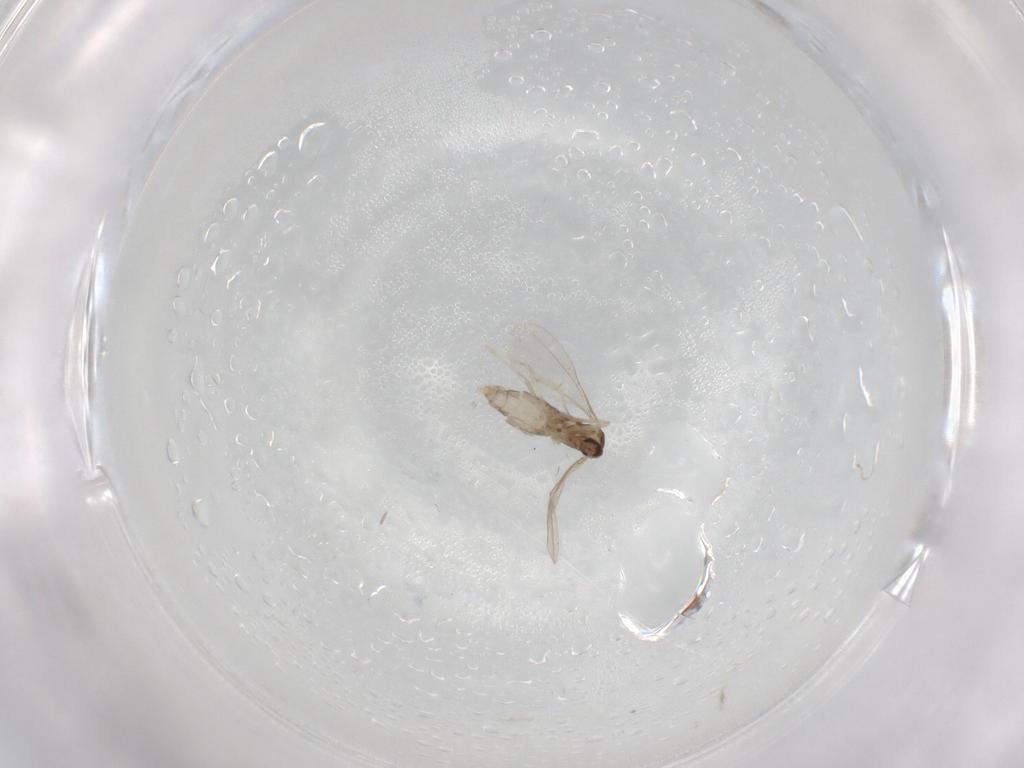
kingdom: Animalia
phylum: Arthropoda
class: Insecta
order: Diptera
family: Cecidomyiidae
